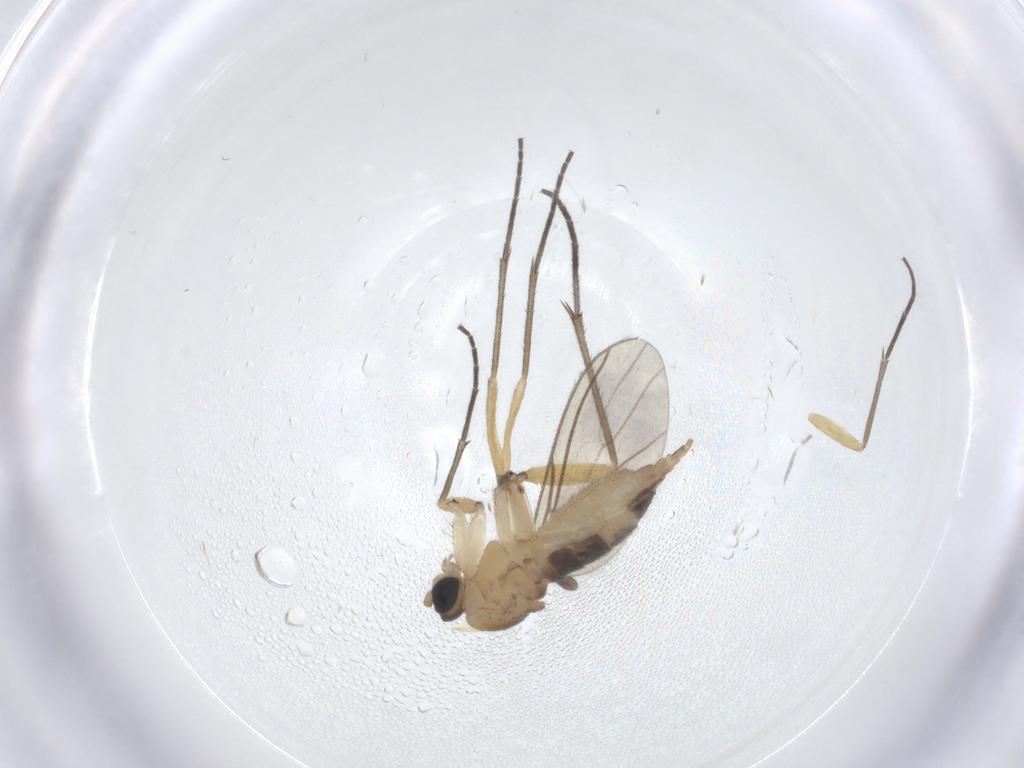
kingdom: Animalia
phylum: Arthropoda
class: Insecta
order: Diptera
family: Sciaridae
